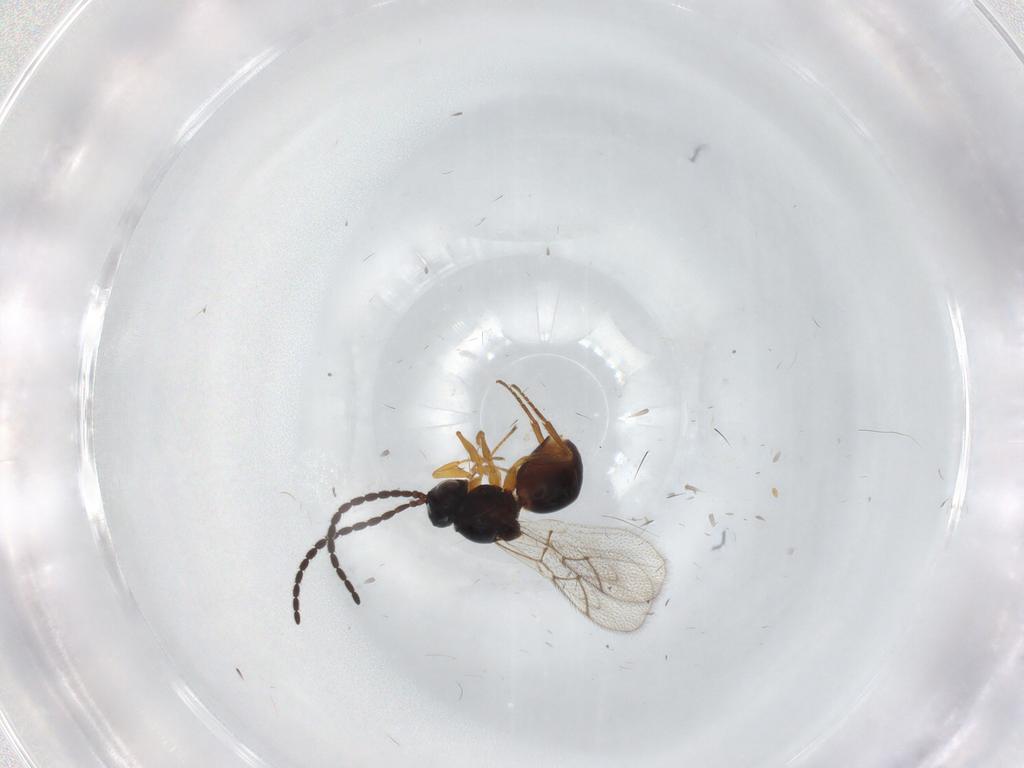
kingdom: Animalia
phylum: Arthropoda
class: Insecta
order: Hymenoptera
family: Figitidae
